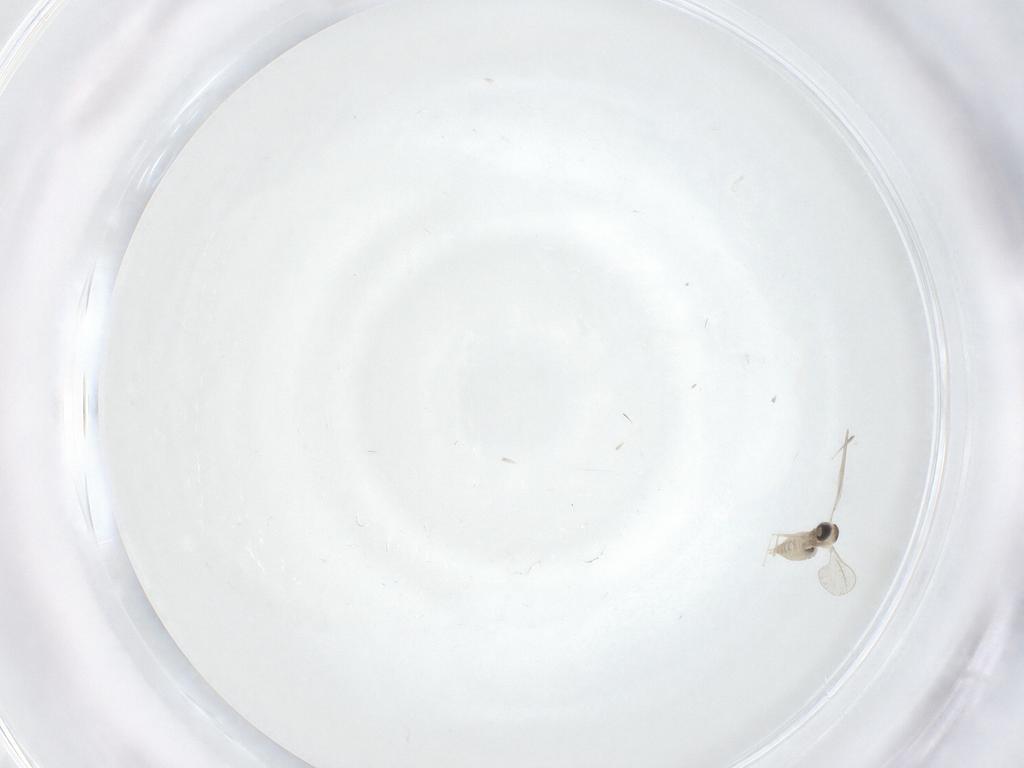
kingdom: Animalia
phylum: Arthropoda
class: Insecta
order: Diptera
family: Cecidomyiidae
